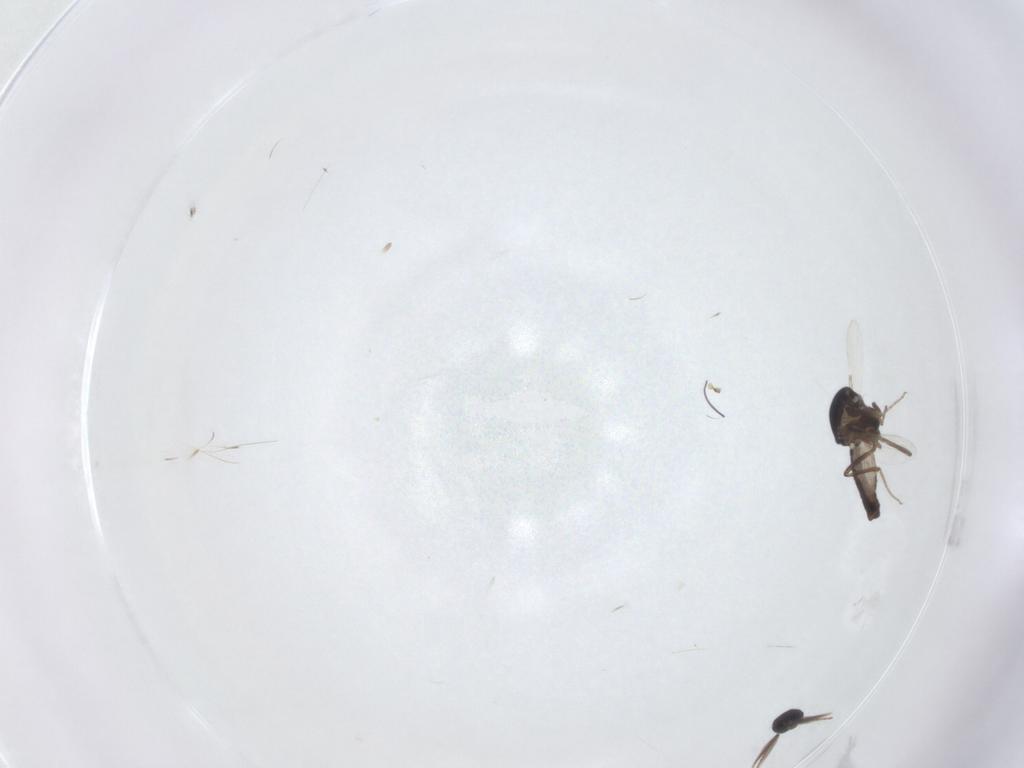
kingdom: Animalia
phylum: Arthropoda
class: Insecta
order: Diptera
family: Ceratopogonidae
